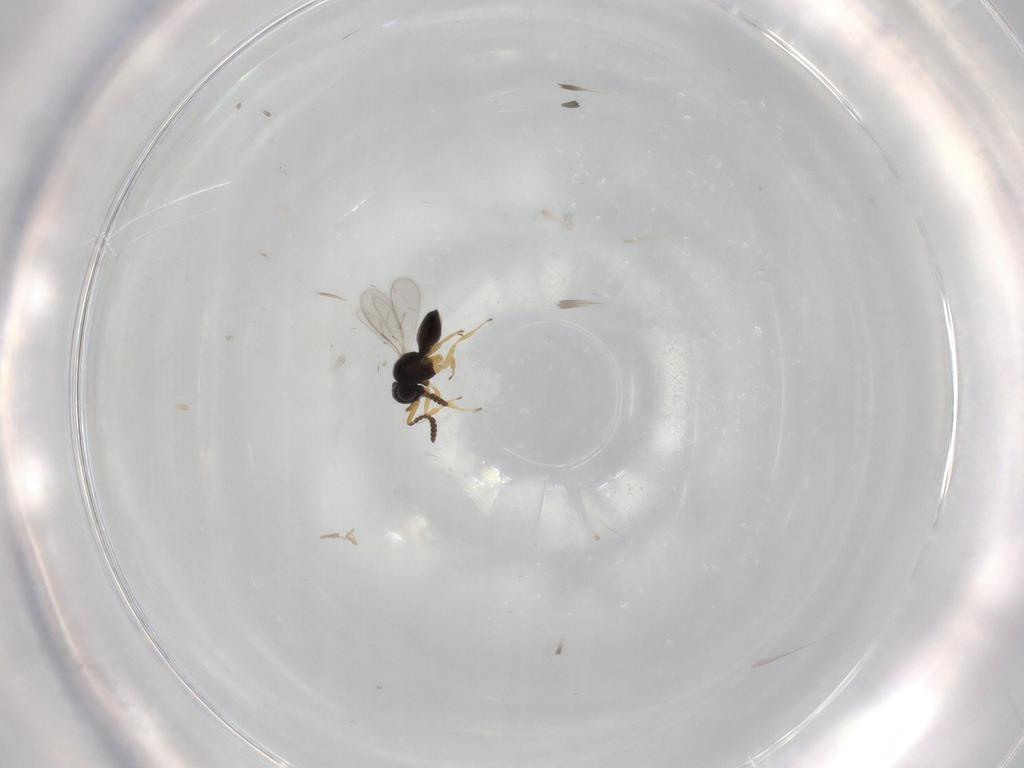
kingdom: Animalia
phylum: Arthropoda
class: Insecta
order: Hymenoptera
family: Scelionidae
